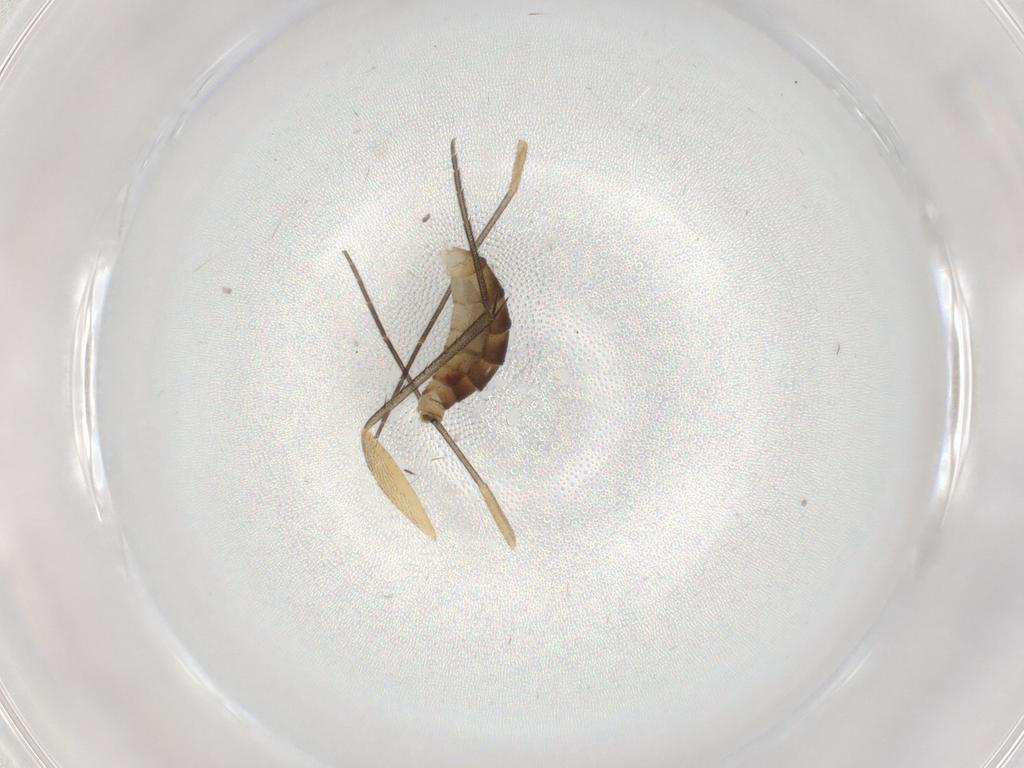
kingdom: Animalia
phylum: Arthropoda
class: Insecta
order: Diptera
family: Mycetophilidae
